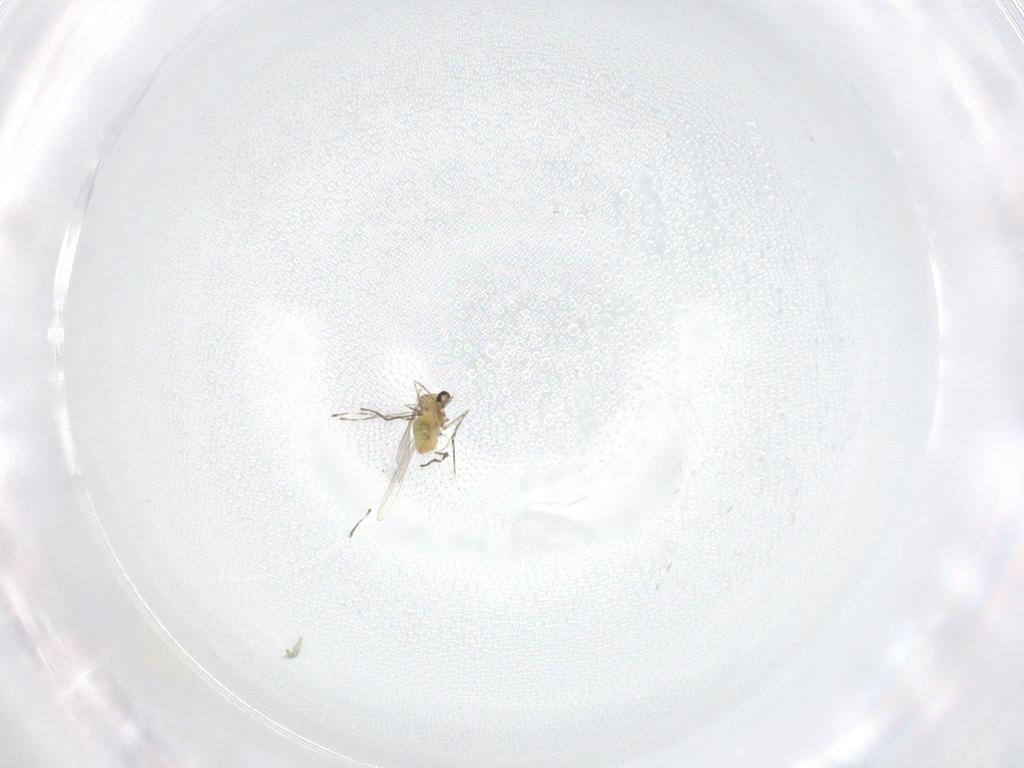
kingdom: Animalia
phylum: Arthropoda
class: Insecta
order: Diptera
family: Cecidomyiidae
